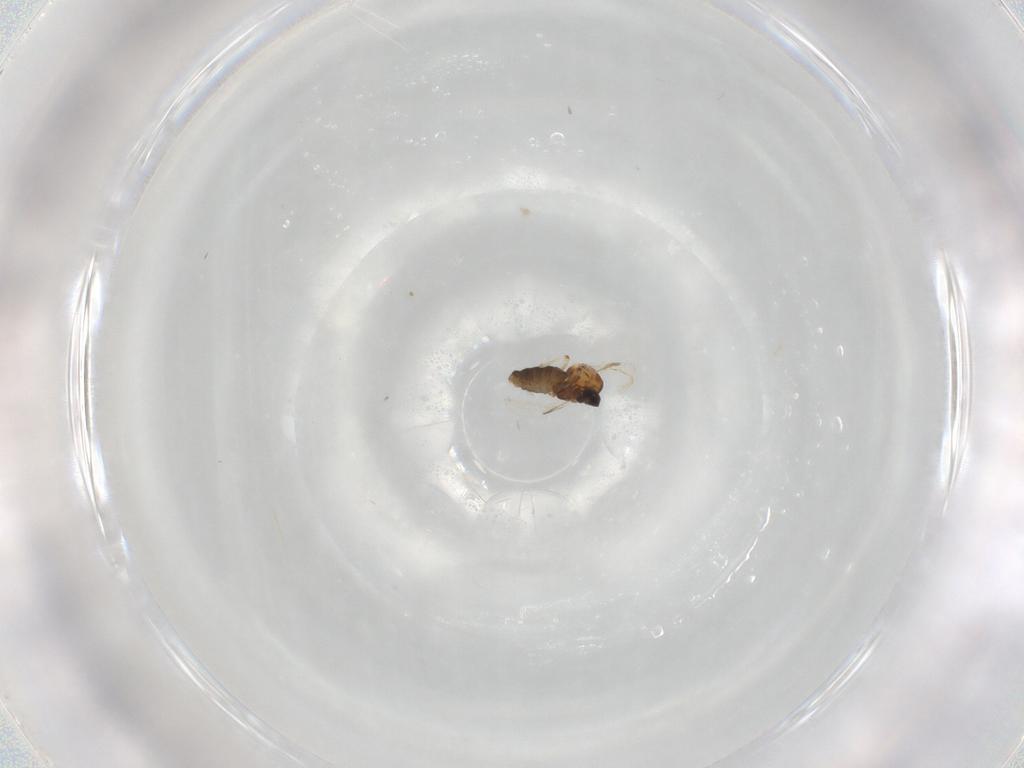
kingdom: Animalia
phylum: Arthropoda
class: Insecta
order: Diptera
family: Ceratopogonidae
